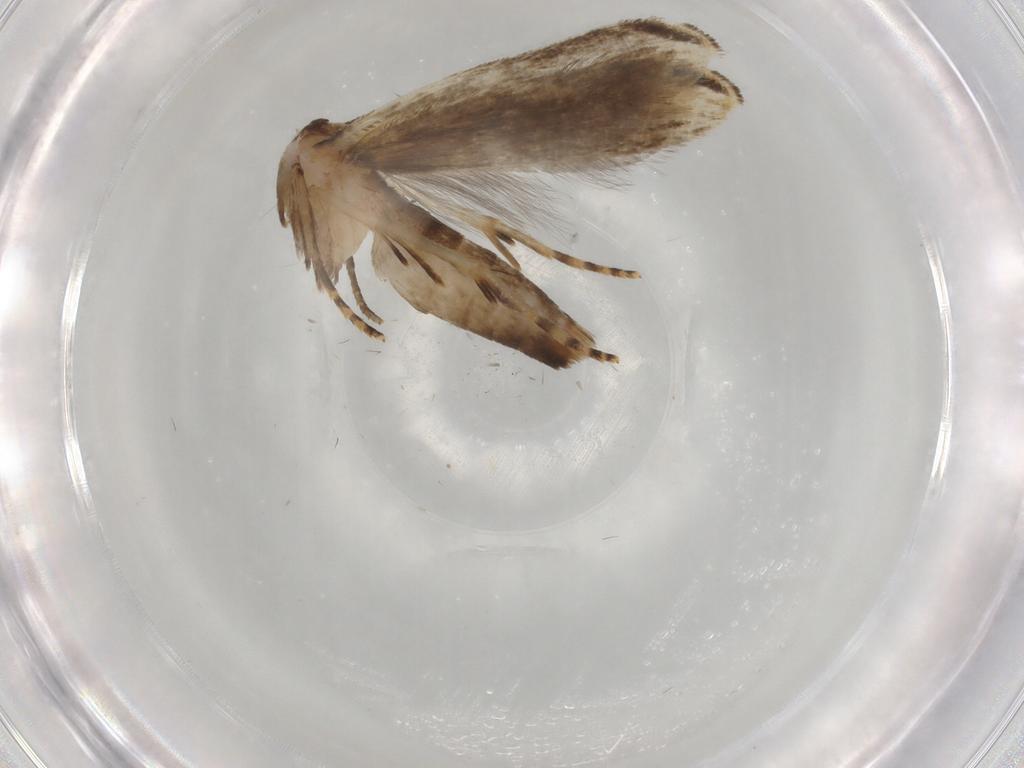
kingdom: Animalia
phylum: Arthropoda
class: Insecta
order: Lepidoptera
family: Gelechiidae
